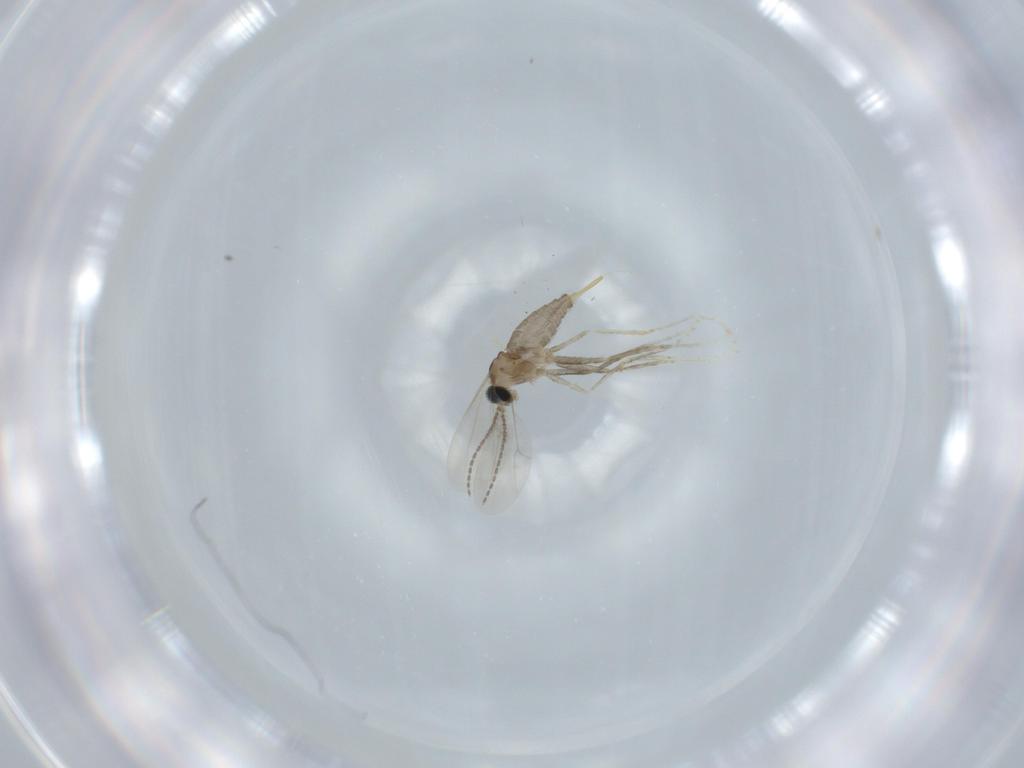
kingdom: Animalia
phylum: Arthropoda
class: Insecta
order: Diptera
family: Cecidomyiidae
